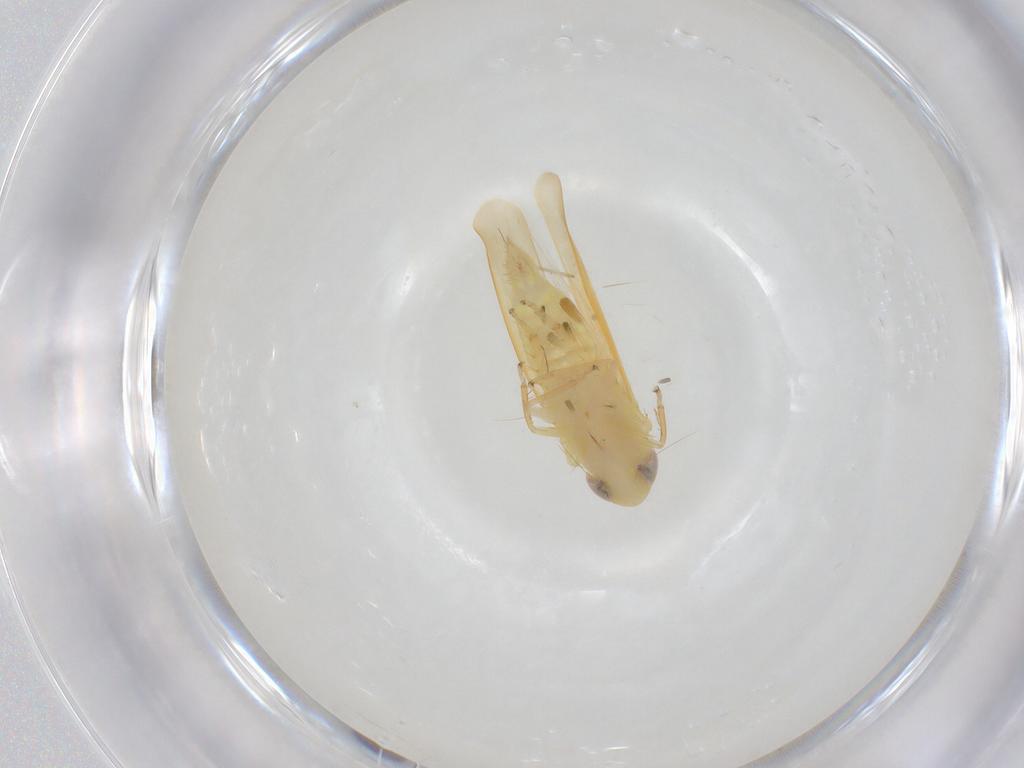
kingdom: Animalia
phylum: Arthropoda
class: Insecta
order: Hemiptera
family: Cicadellidae
